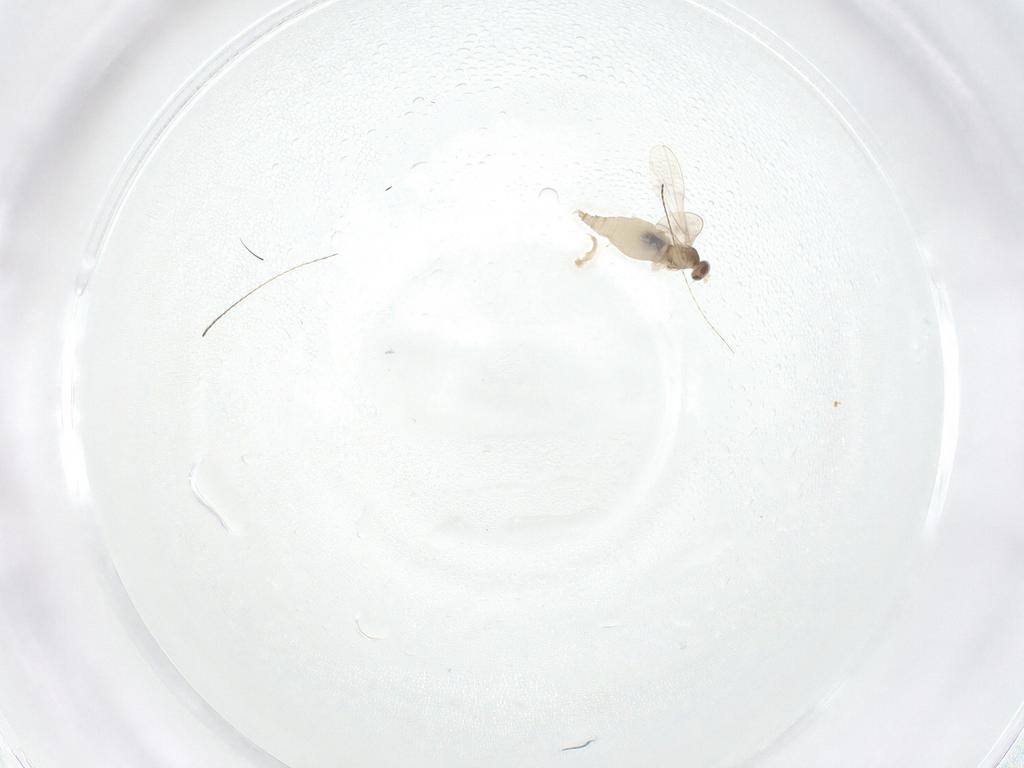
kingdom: Animalia
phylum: Arthropoda
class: Insecta
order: Diptera
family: Cecidomyiidae
